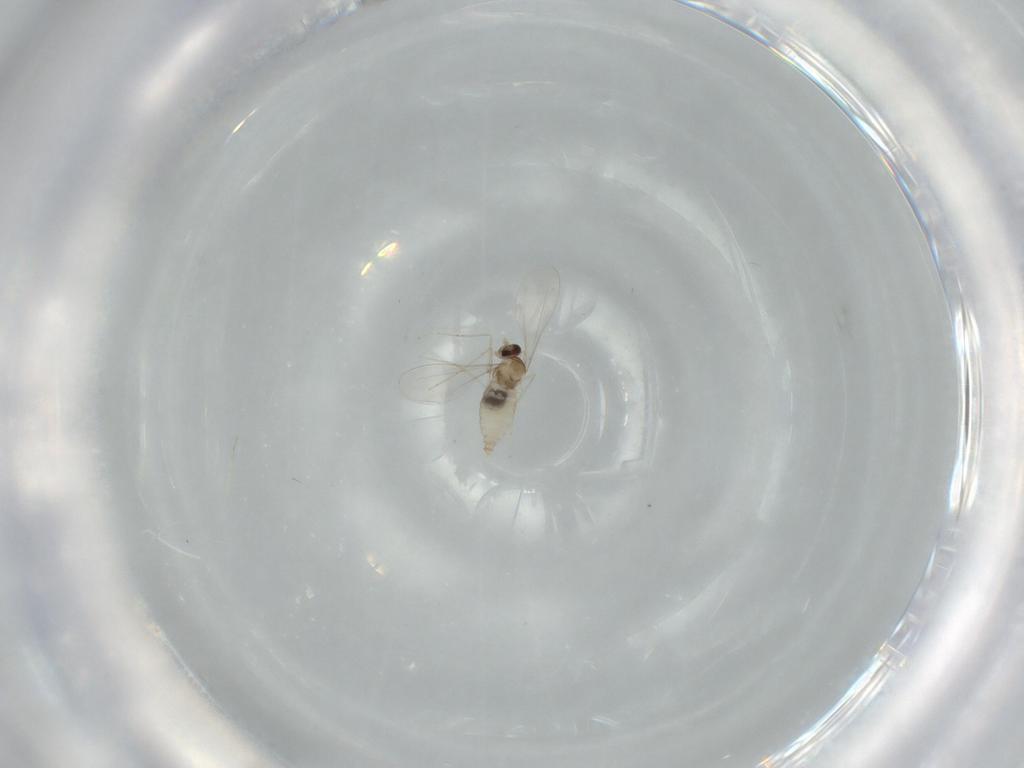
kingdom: Animalia
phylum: Arthropoda
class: Insecta
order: Diptera
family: Cecidomyiidae
